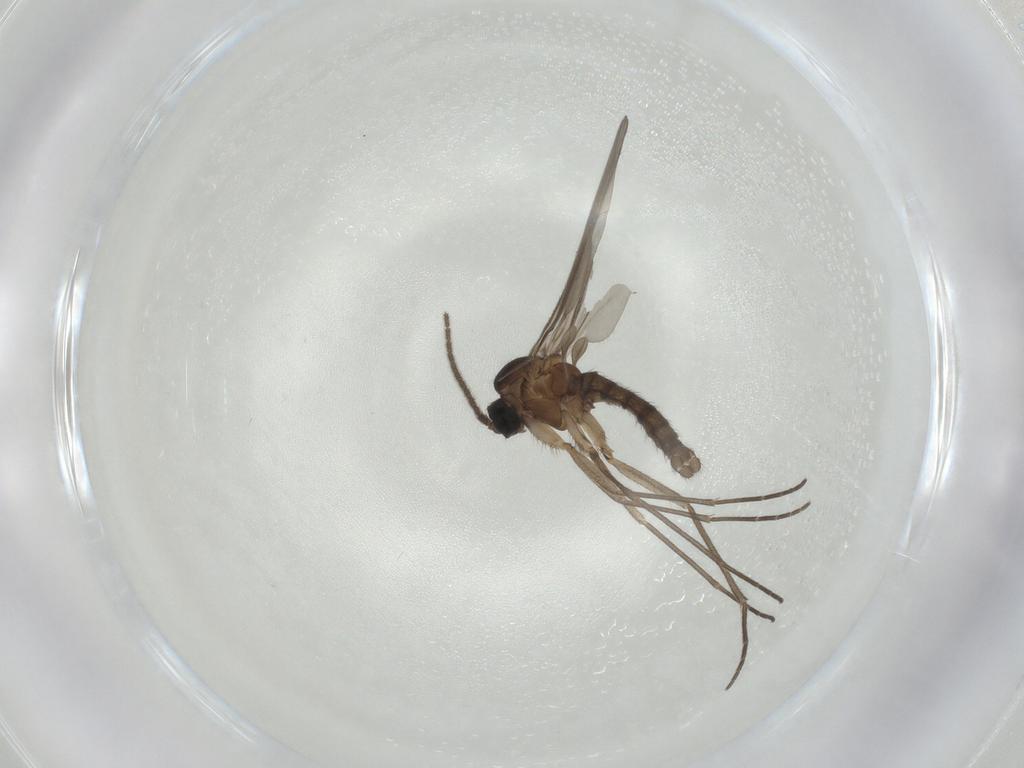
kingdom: Animalia
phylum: Arthropoda
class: Insecta
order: Diptera
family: Sciaridae
